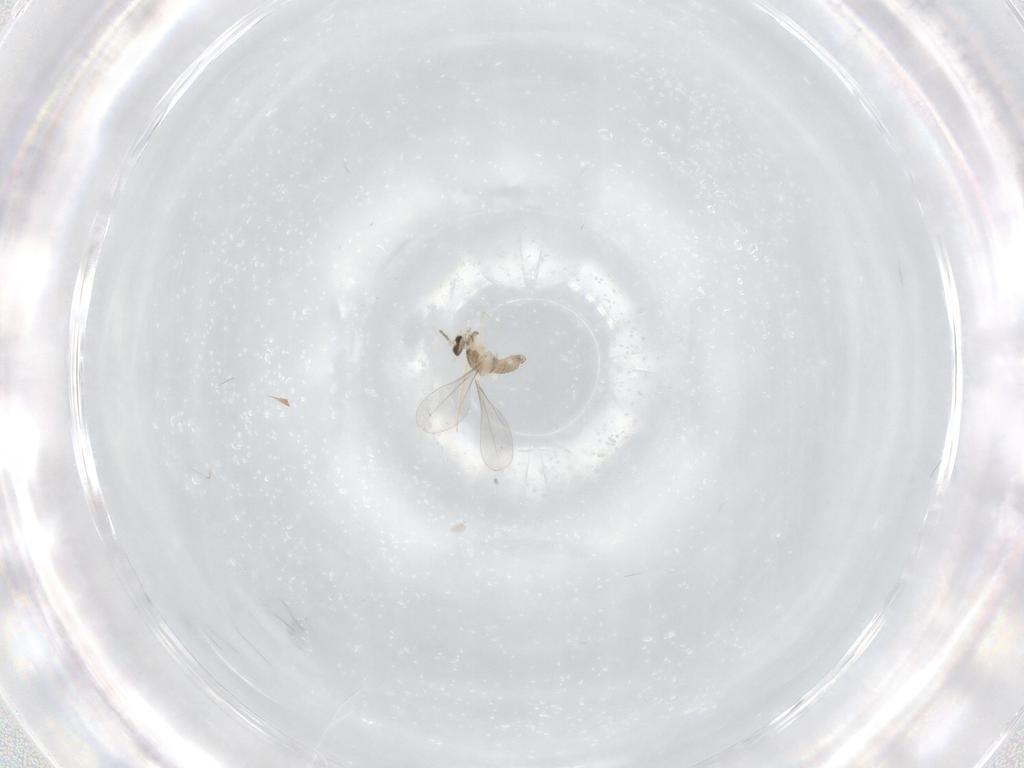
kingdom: Animalia
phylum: Arthropoda
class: Insecta
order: Diptera
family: Cecidomyiidae
